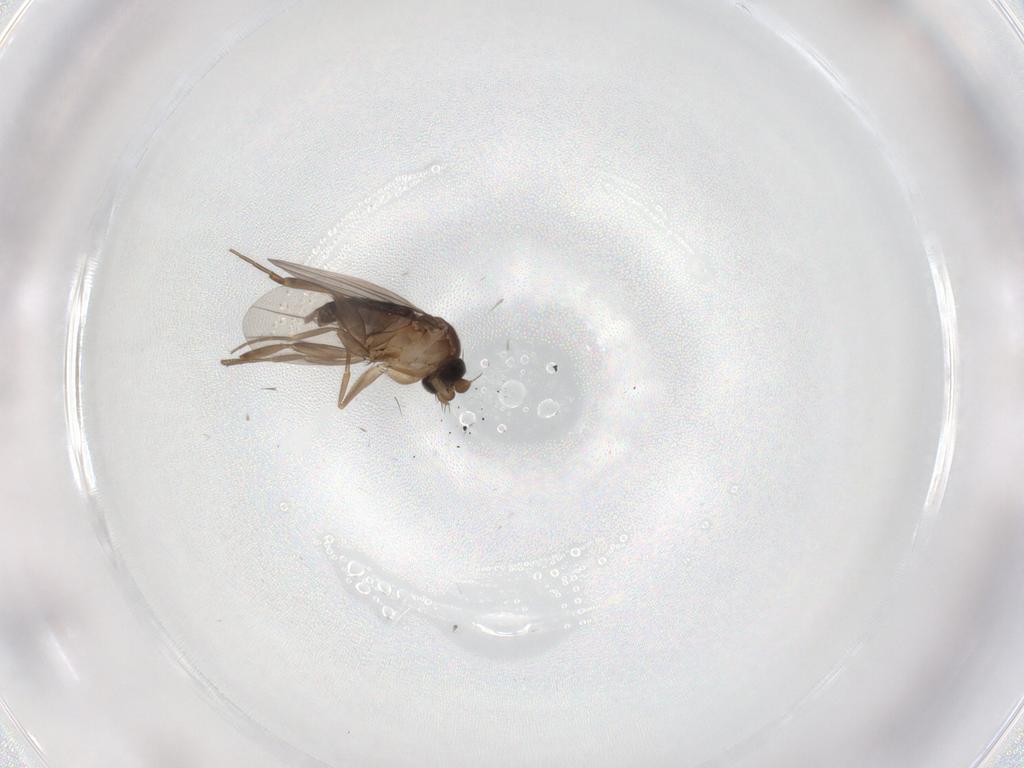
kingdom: Animalia
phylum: Arthropoda
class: Insecta
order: Diptera
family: Chironomidae
